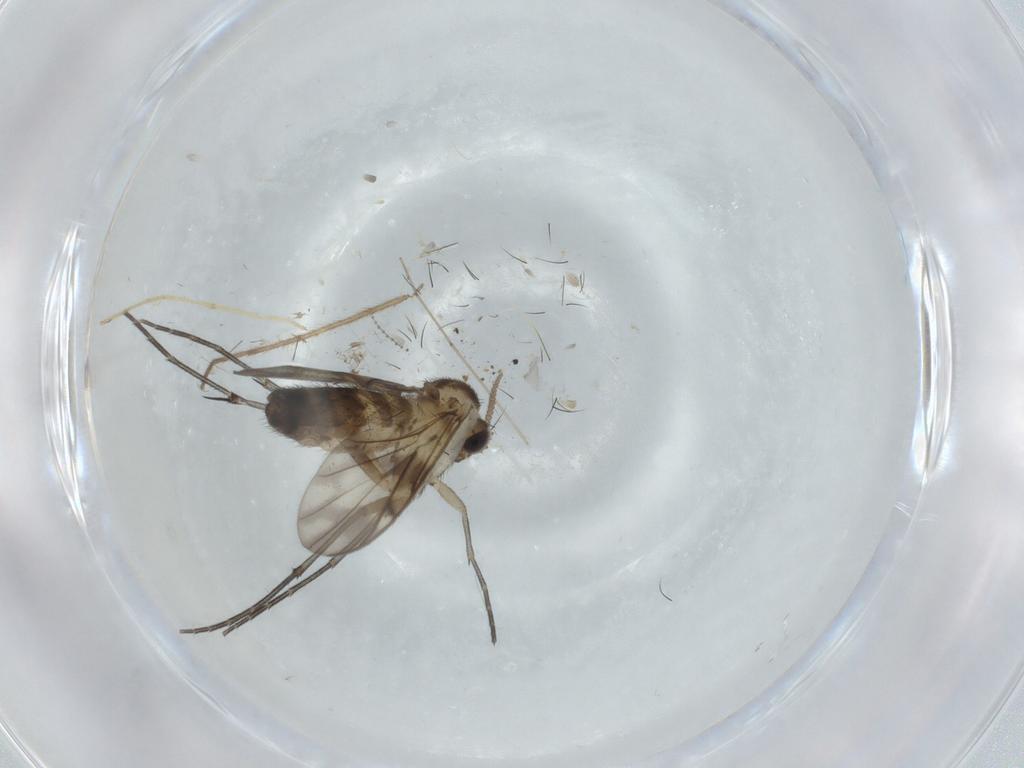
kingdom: Animalia
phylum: Arthropoda
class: Insecta
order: Diptera
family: Keroplatidae
